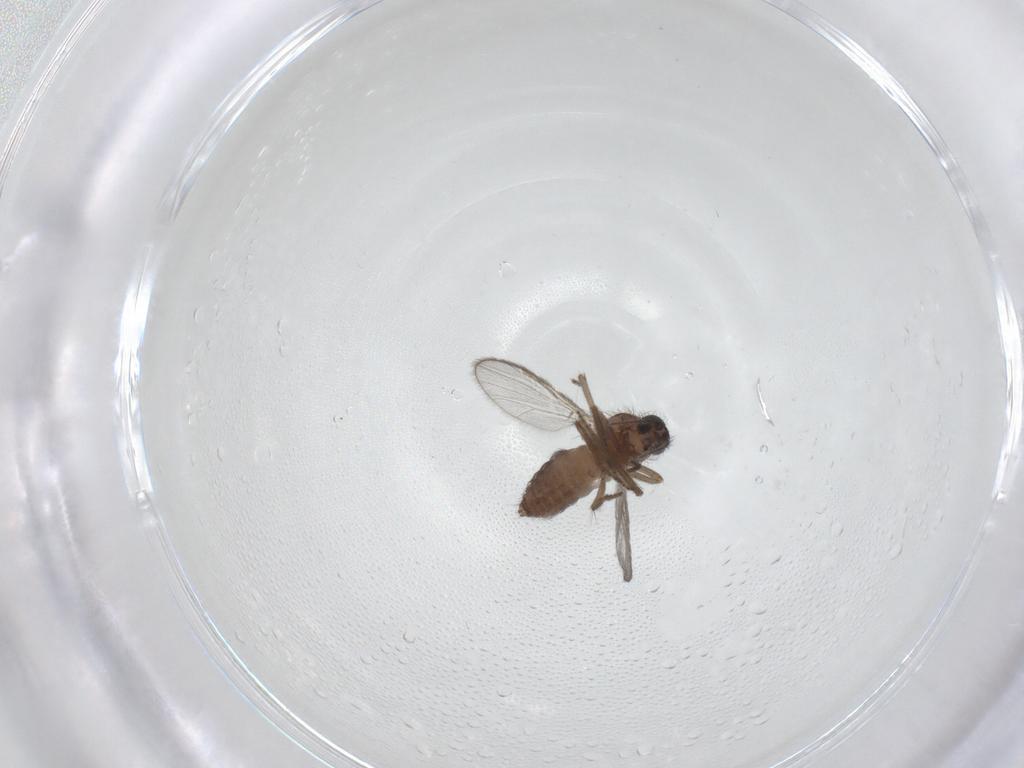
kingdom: Animalia
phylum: Arthropoda
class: Insecta
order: Diptera
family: Ceratopogonidae
